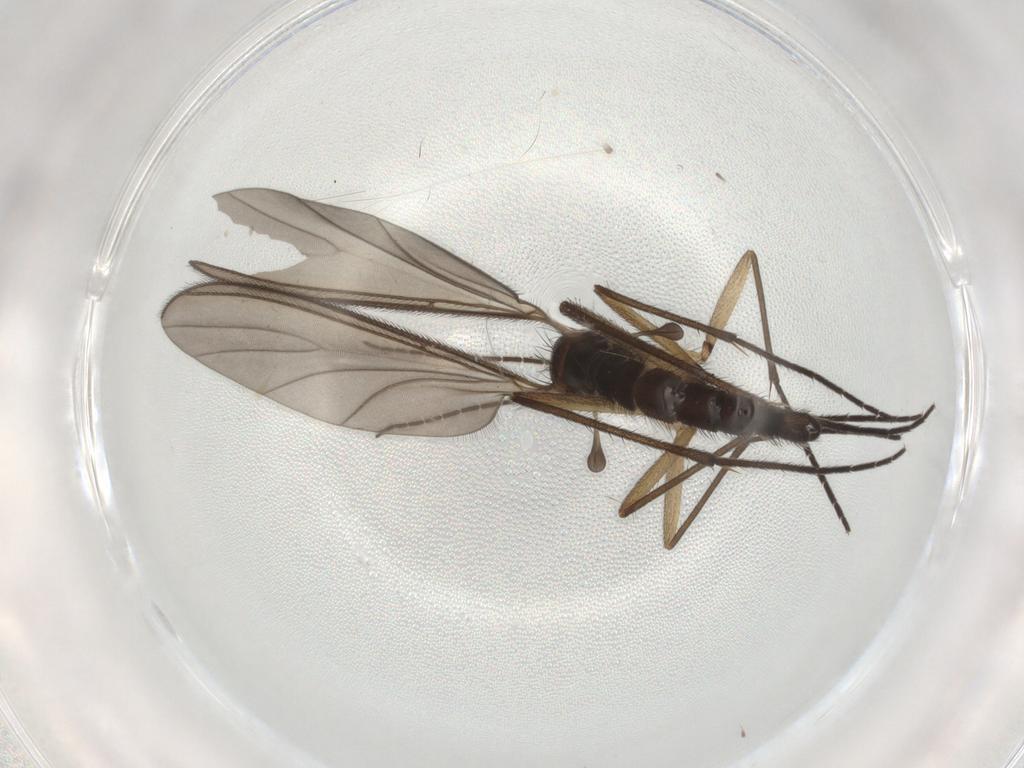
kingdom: Animalia
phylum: Arthropoda
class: Insecta
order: Diptera
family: Sciaridae
